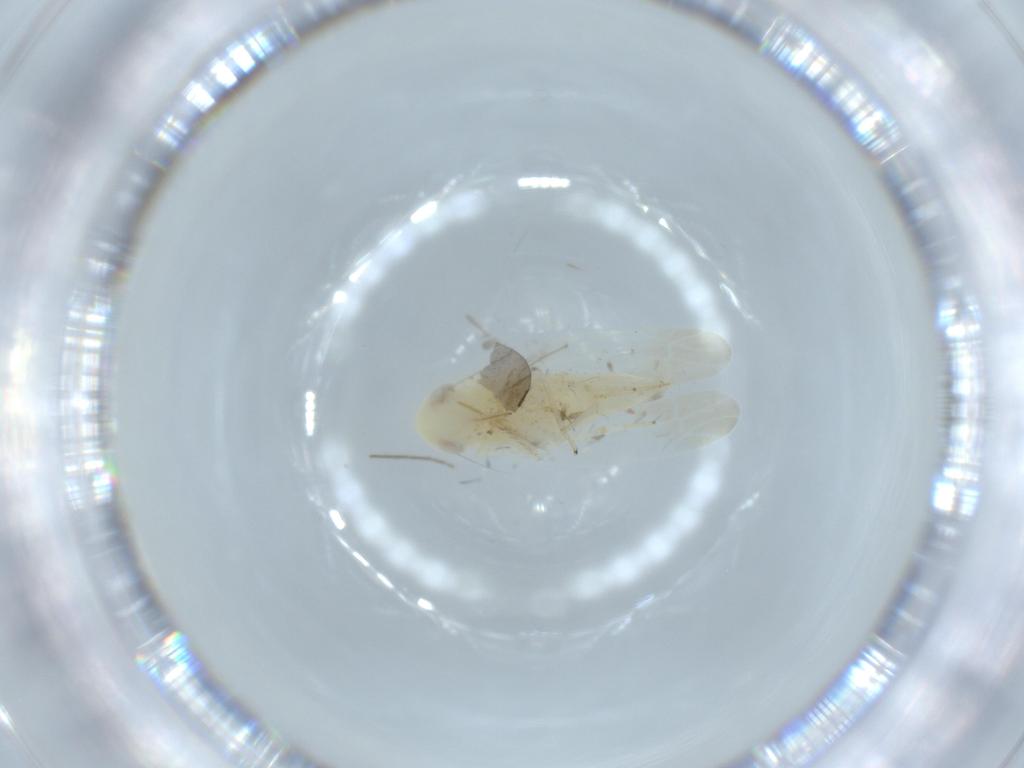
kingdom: Animalia
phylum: Arthropoda
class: Insecta
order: Hemiptera
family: Cicadellidae
